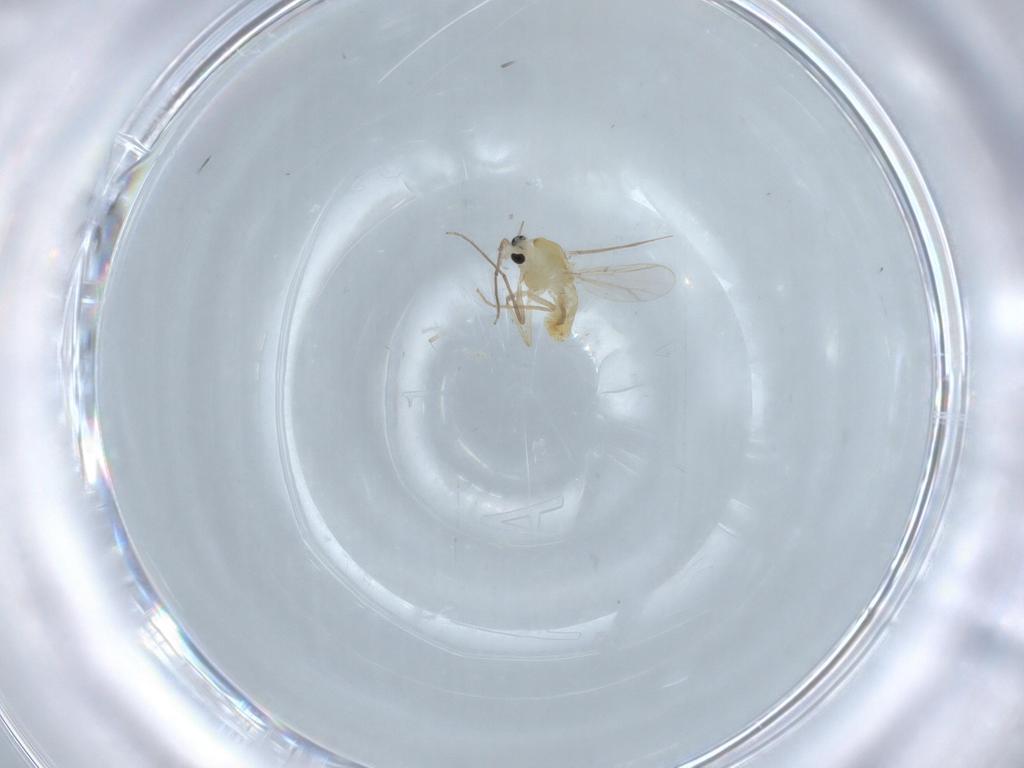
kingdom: Animalia
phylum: Arthropoda
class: Insecta
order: Diptera
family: Chironomidae
